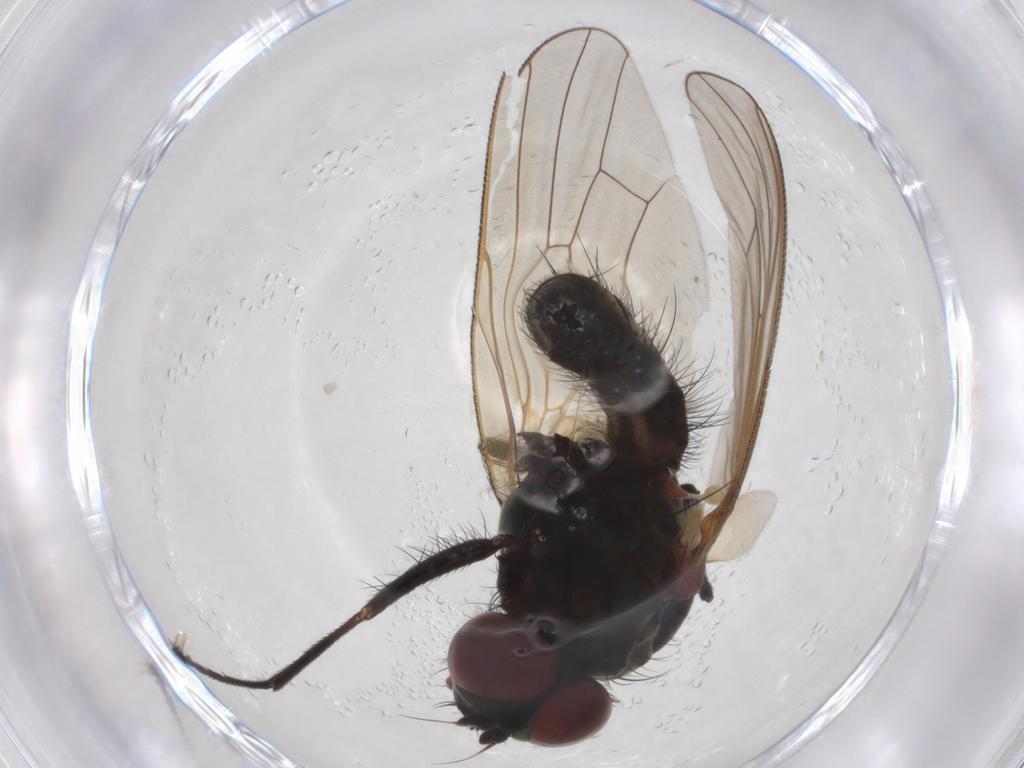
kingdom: Animalia
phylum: Arthropoda
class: Insecta
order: Diptera
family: Anthomyiidae
